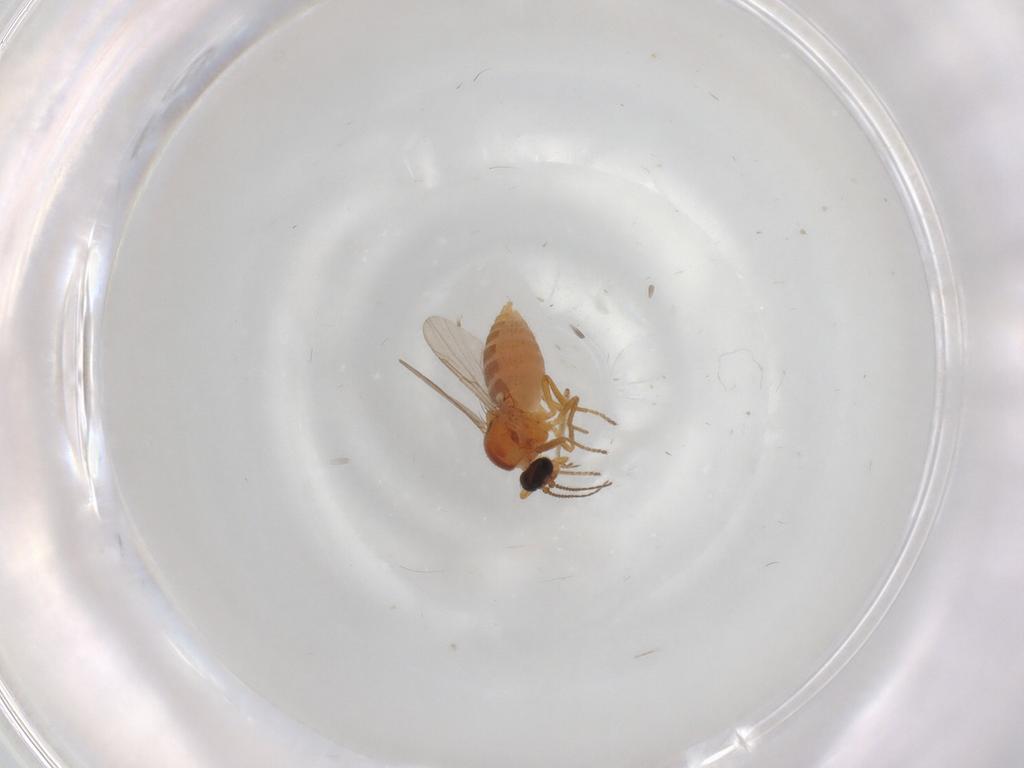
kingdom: Animalia
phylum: Arthropoda
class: Insecta
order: Diptera
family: Muscidae
